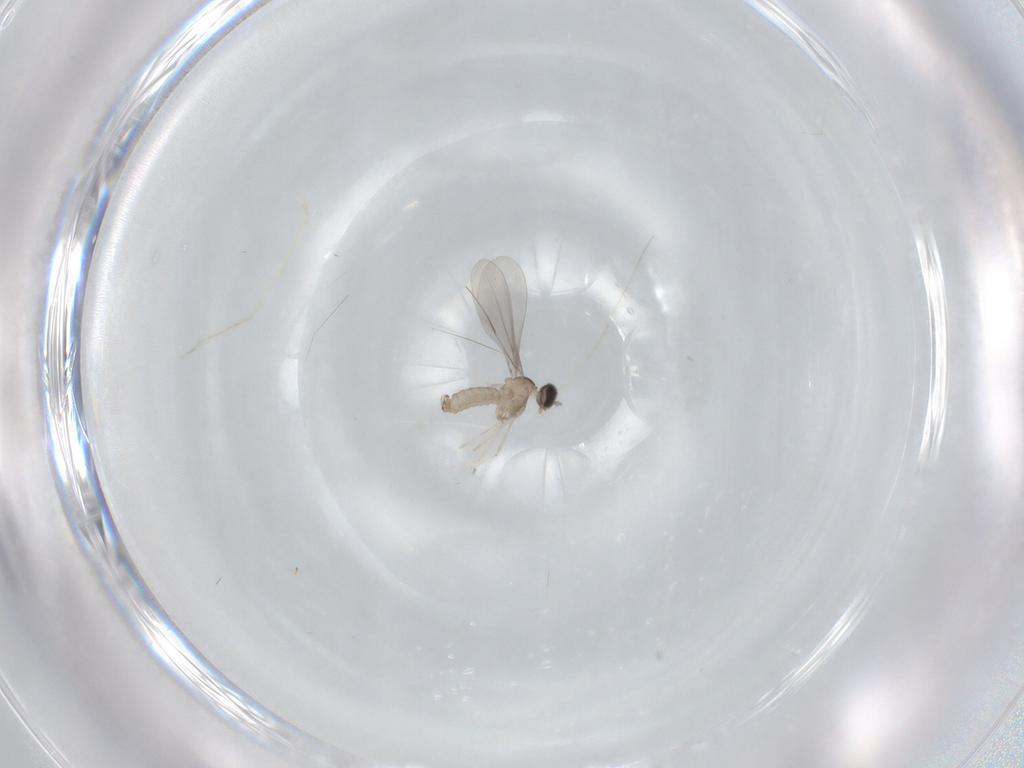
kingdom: Animalia
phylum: Arthropoda
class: Insecta
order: Diptera
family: Cecidomyiidae
